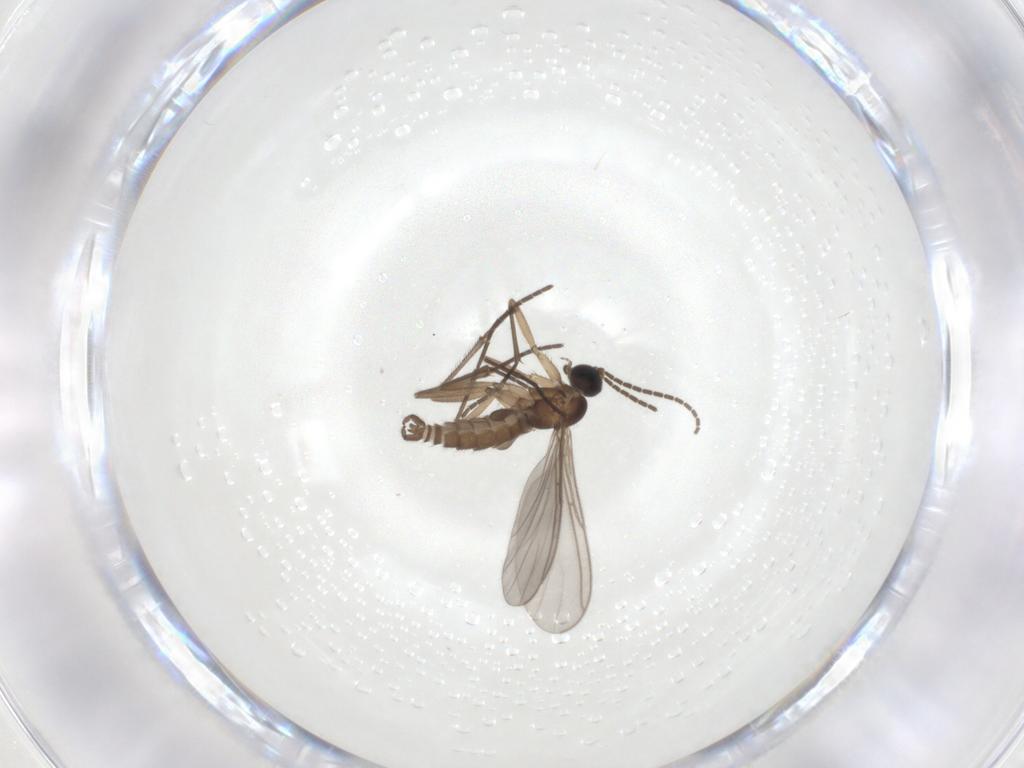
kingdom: Animalia
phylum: Arthropoda
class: Insecta
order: Diptera
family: Sciaridae
